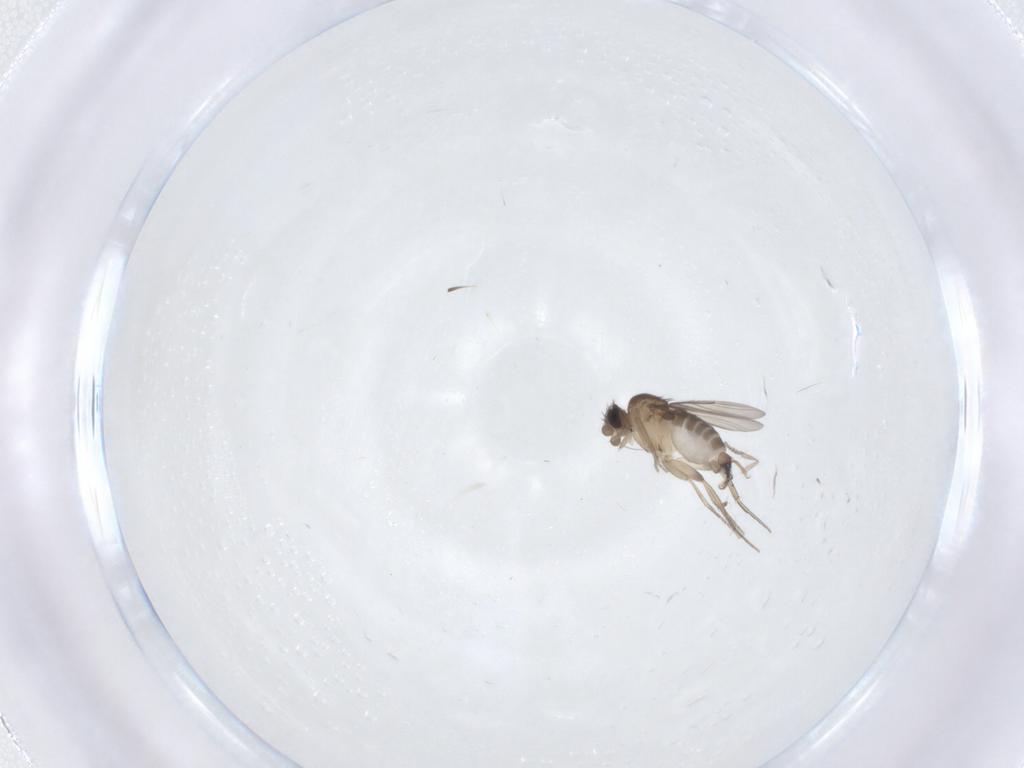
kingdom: Animalia
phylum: Arthropoda
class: Insecta
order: Diptera
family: Phoridae
